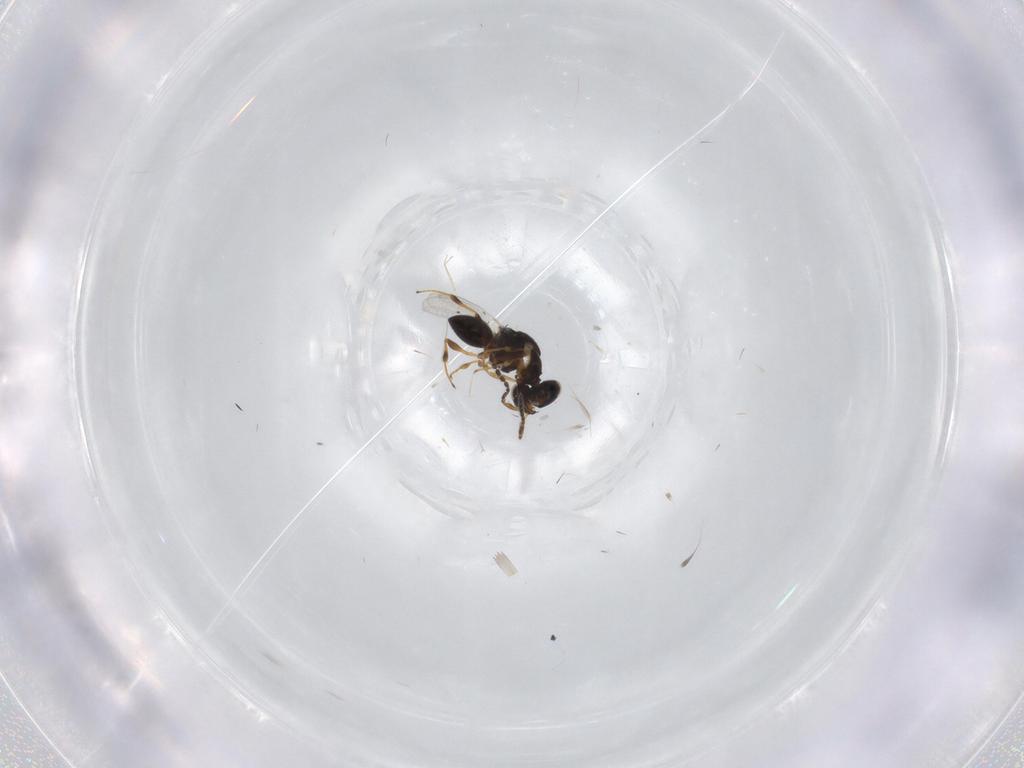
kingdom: Animalia
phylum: Arthropoda
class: Insecta
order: Hymenoptera
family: Platygastridae
